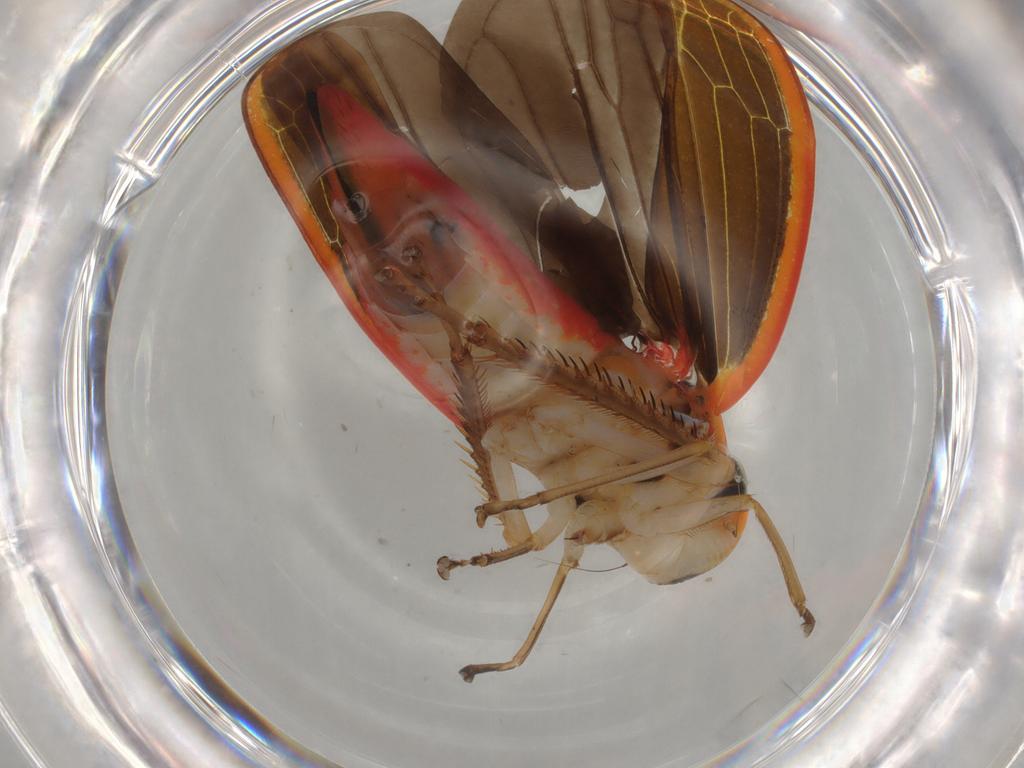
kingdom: Animalia
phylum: Arthropoda
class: Insecta
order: Hemiptera
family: Cicadellidae
